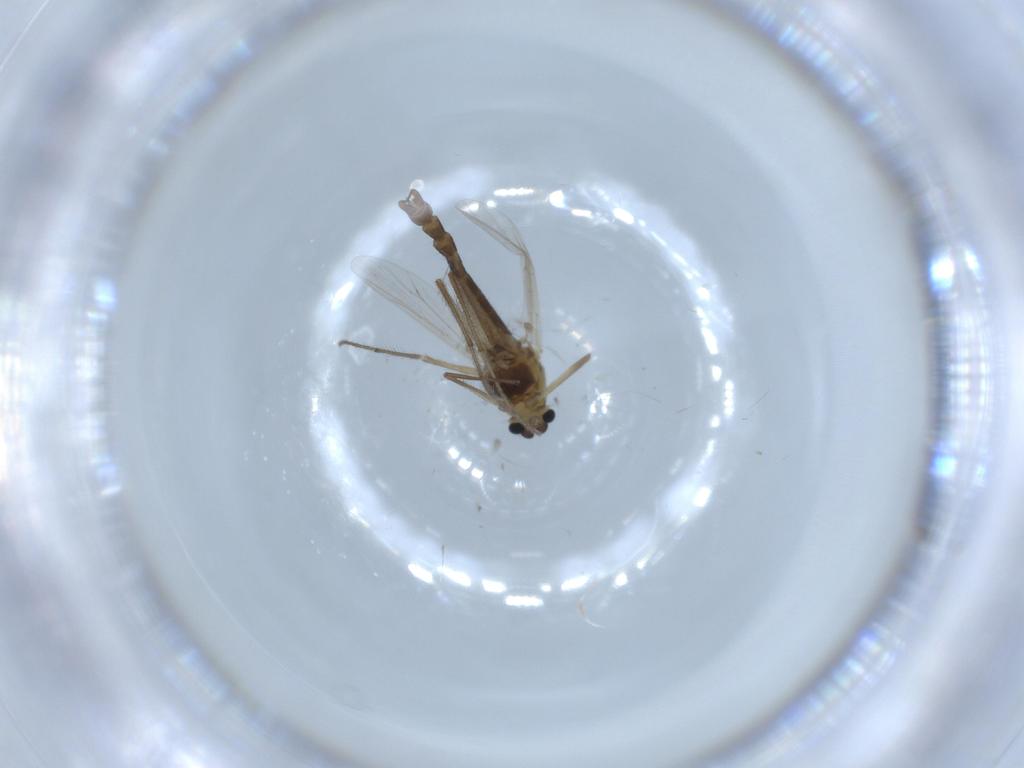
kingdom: Animalia
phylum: Arthropoda
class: Insecta
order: Diptera
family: Chironomidae
